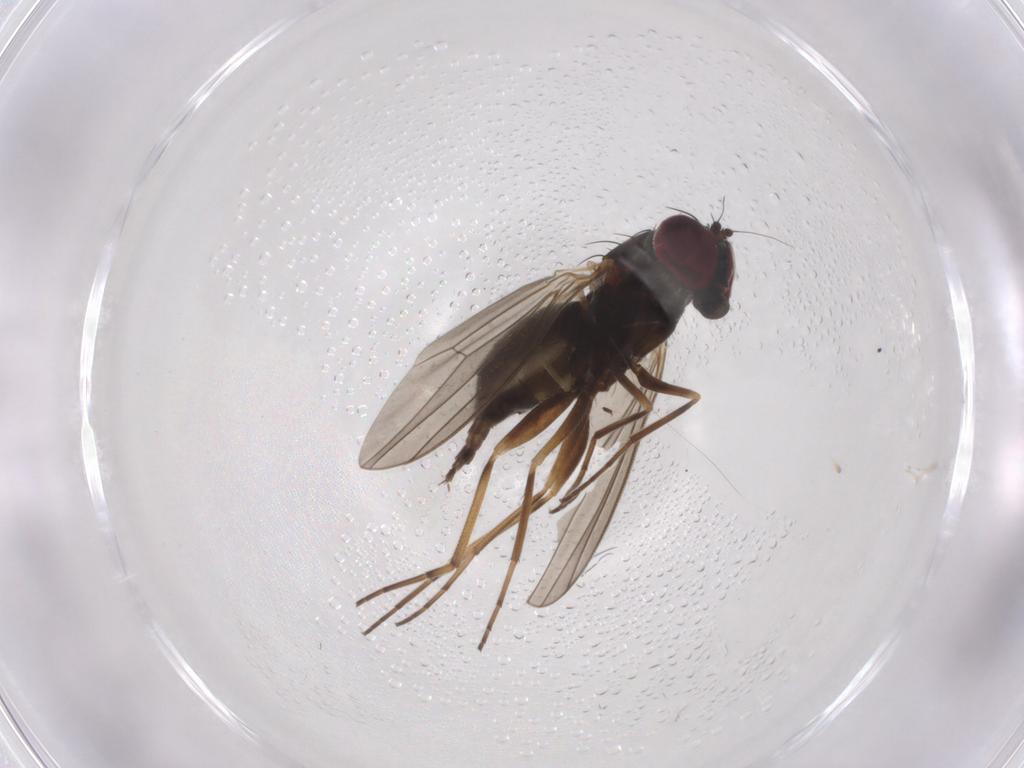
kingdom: Animalia
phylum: Arthropoda
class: Insecta
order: Diptera
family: Dolichopodidae
